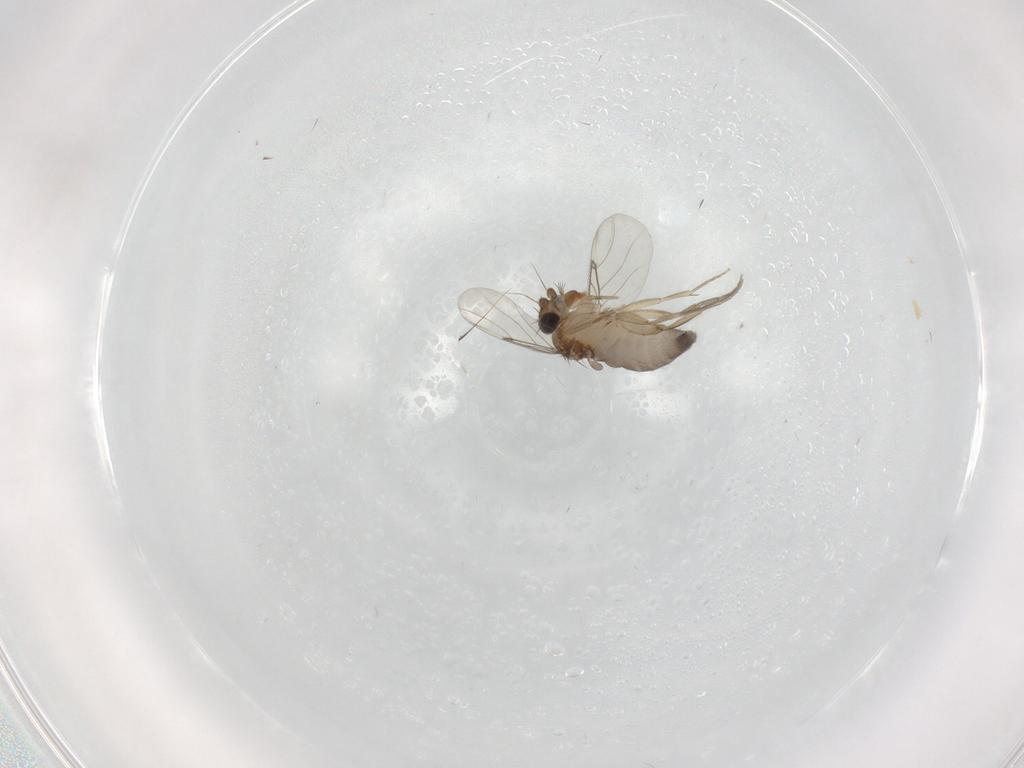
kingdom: Animalia
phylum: Arthropoda
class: Insecta
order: Diptera
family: Phoridae
